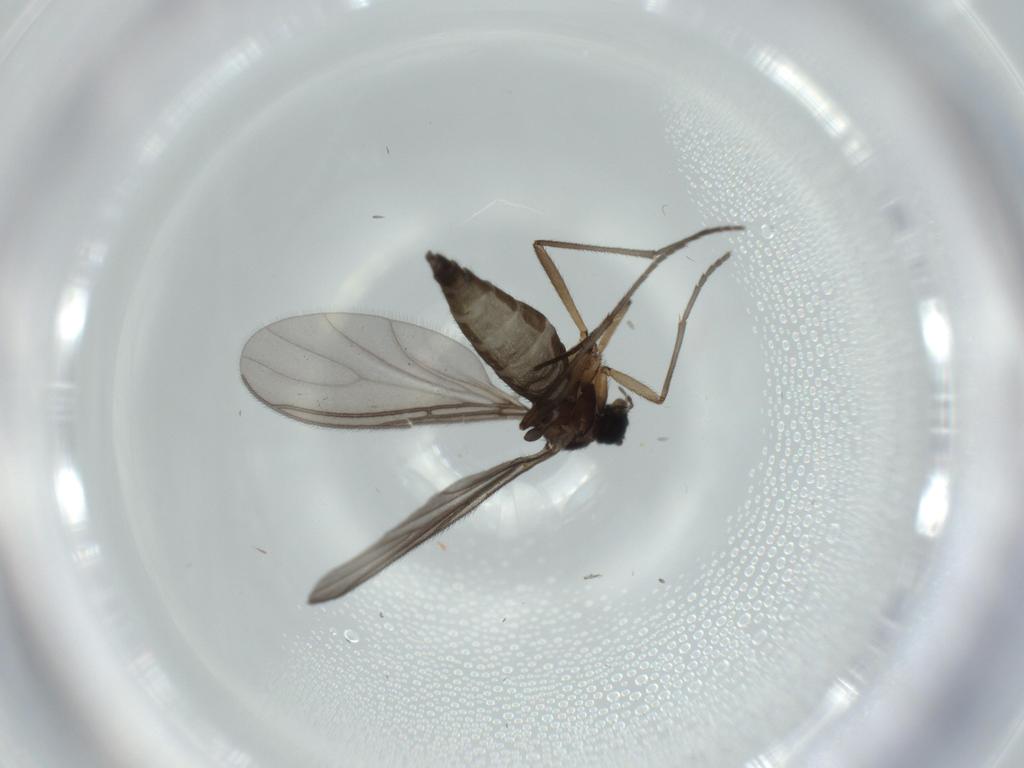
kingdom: Animalia
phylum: Arthropoda
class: Insecta
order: Diptera
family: Sciaridae
